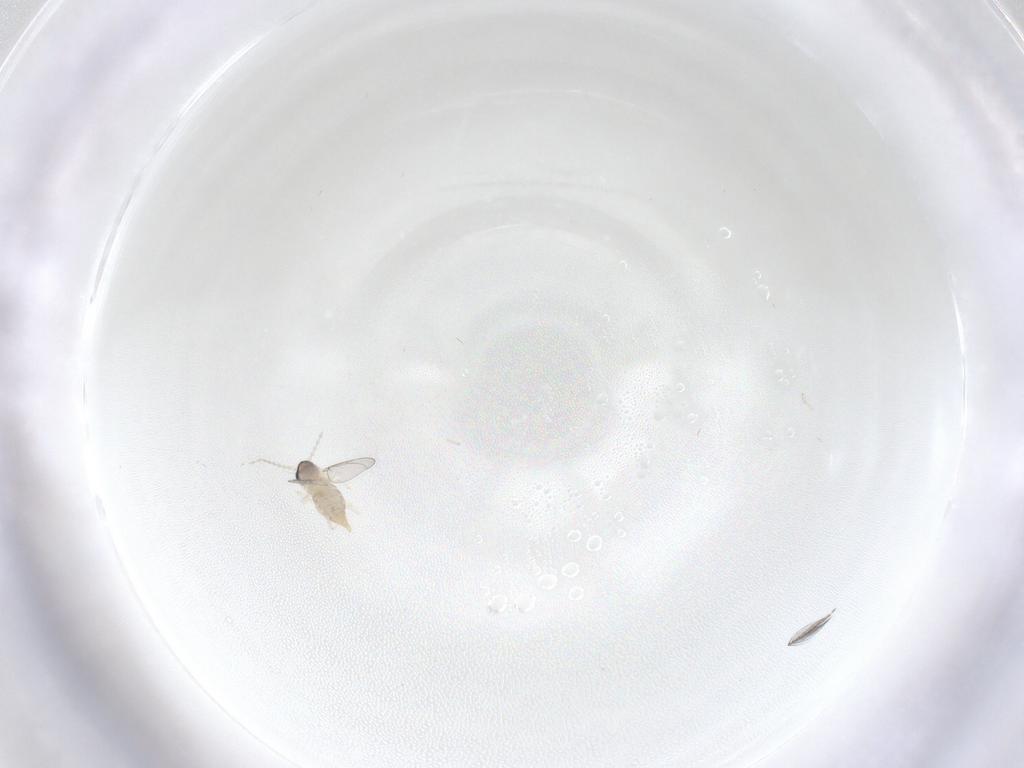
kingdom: Animalia
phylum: Arthropoda
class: Insecta
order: Diptera
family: Cecidomyiidae
